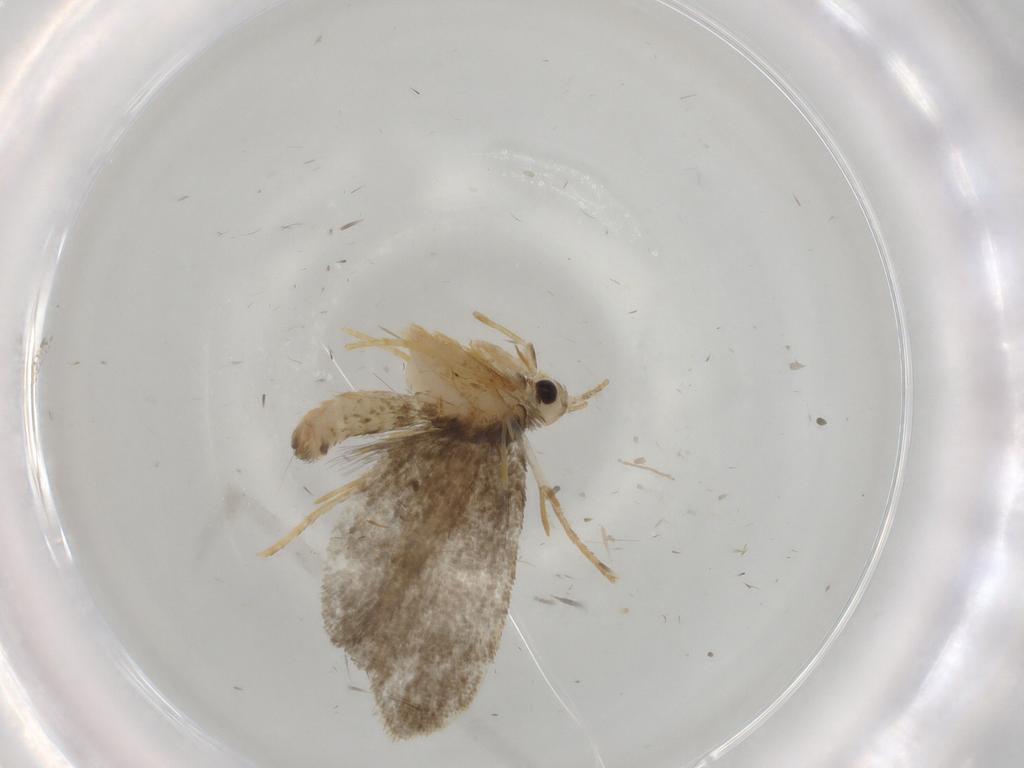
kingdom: Animalia
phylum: Arthropoda
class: Insecta
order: Lepidoptera
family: Psychidae
